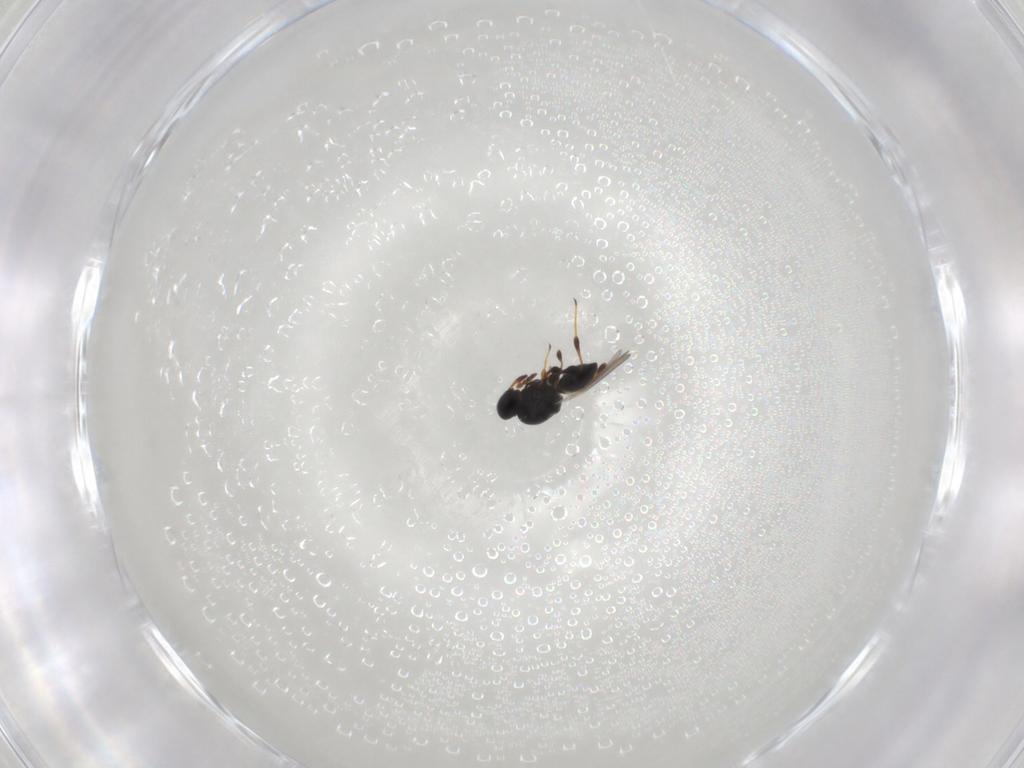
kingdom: Animalia
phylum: Arthropoda
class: Insecta
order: Hymenoptera
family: Platygastridae
